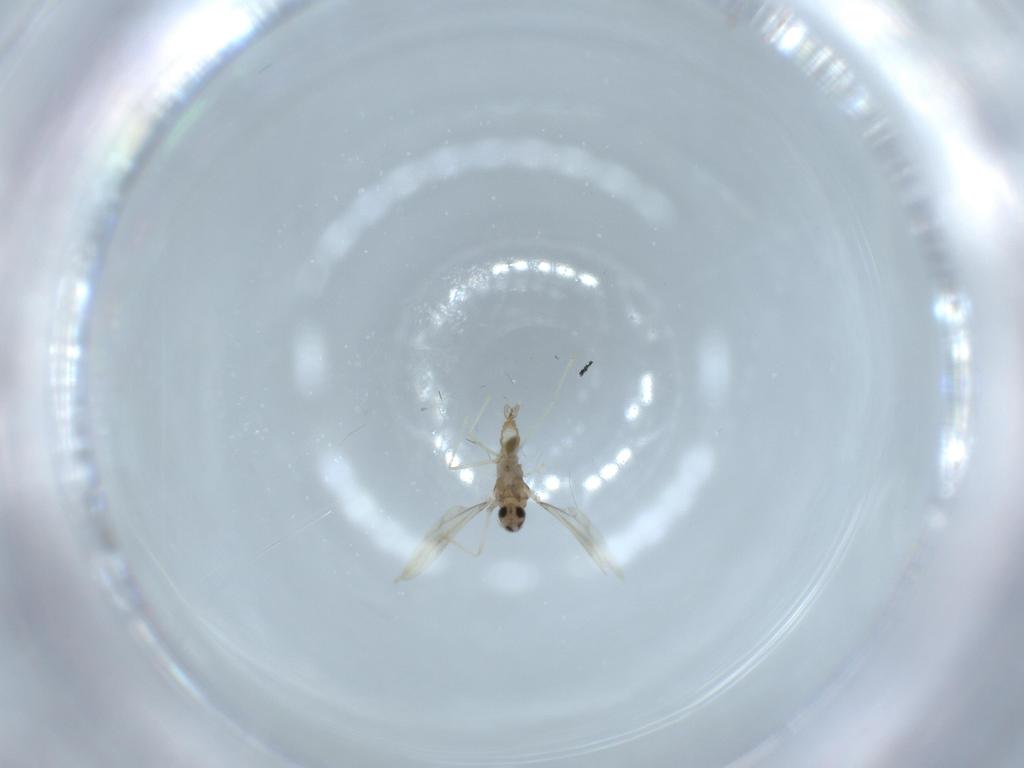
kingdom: Animalia
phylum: Arthropoda
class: Insecta
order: Diptera
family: Cecidomyiidae
